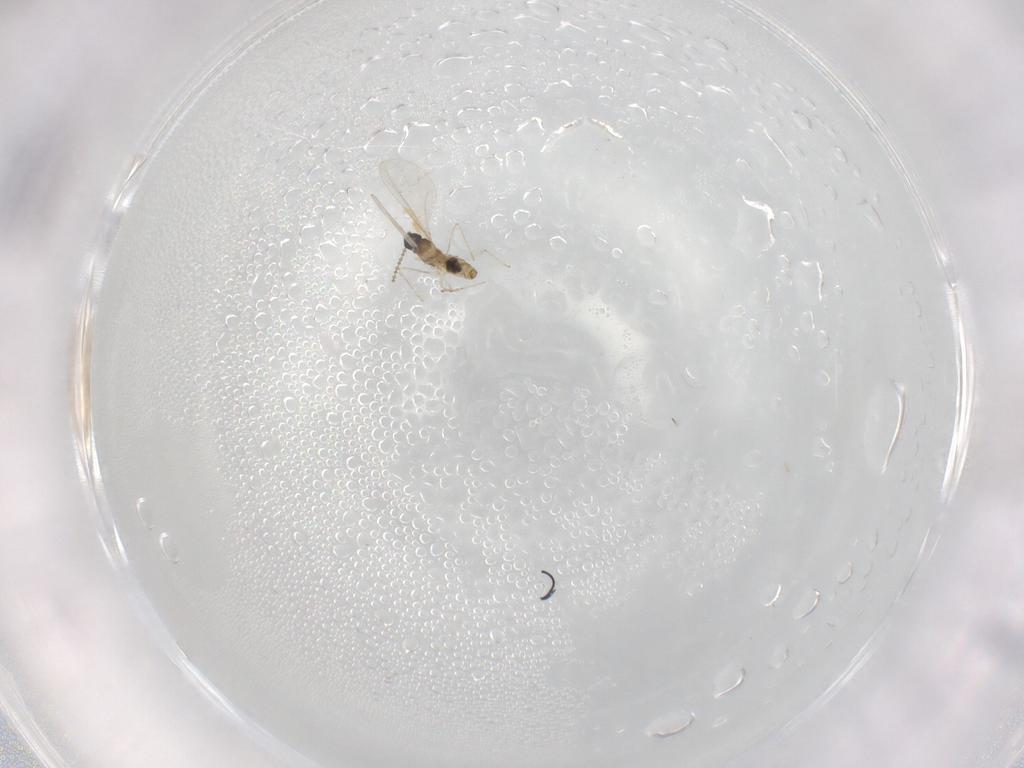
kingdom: Animalia
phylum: Arthropoda
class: Insecta
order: Diptera
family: Cecidomyiidae
